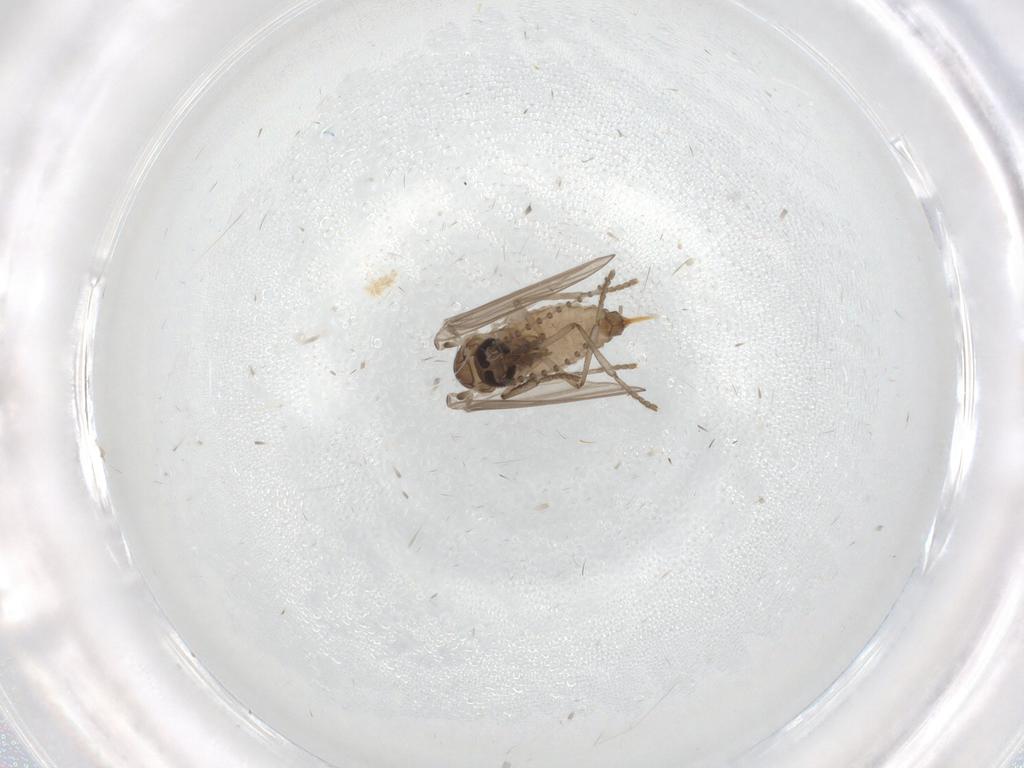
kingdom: Animalia
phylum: Arthropoda
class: Insecta
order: Diptera
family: Psychodidae
